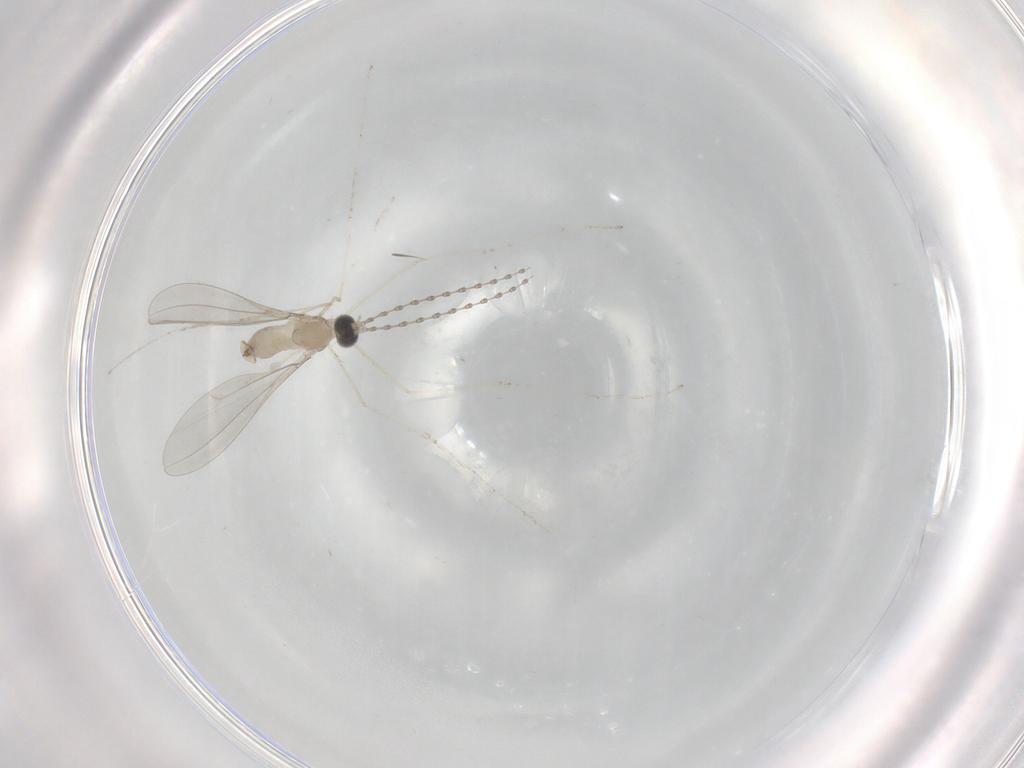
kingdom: Animalia
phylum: Arthropoda
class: Insecta
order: Diptera
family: Cecidomyiidae
